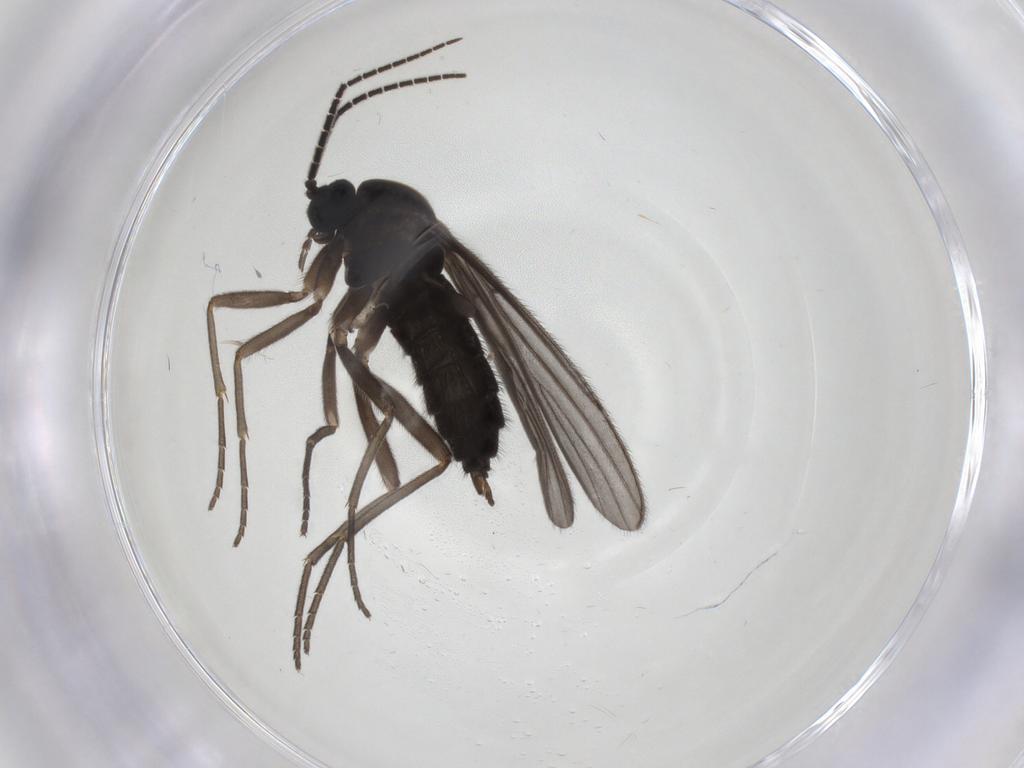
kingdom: Animalia
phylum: Arthropoda
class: Insecta
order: Diptera
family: Sciaridae
